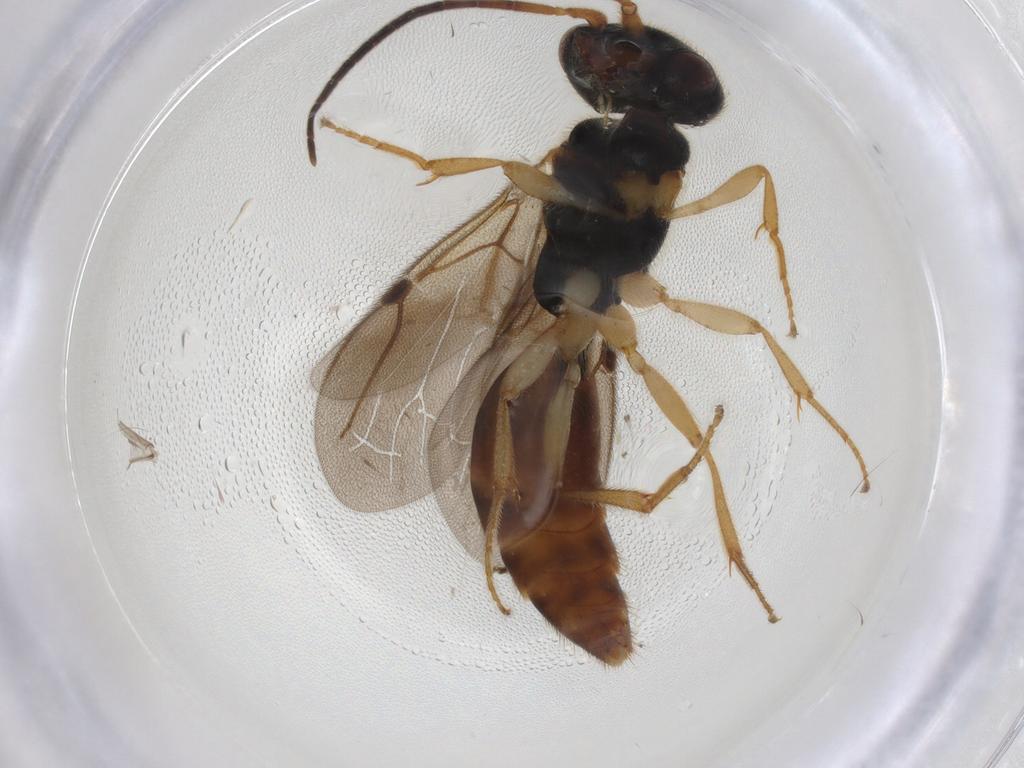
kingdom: Animalia
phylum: Arthropoda
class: Insecta
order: Hymenoptera
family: Bethylidae
